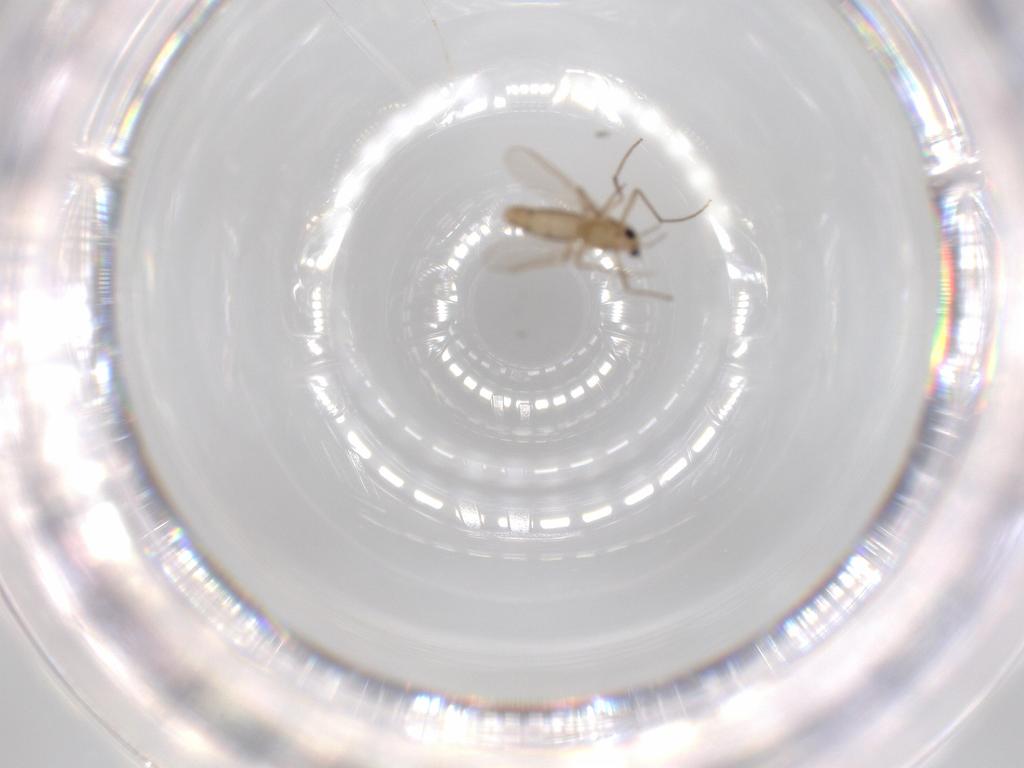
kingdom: Animalia
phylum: Arthropoda
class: Insecta
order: Diptera
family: Chironomidae
